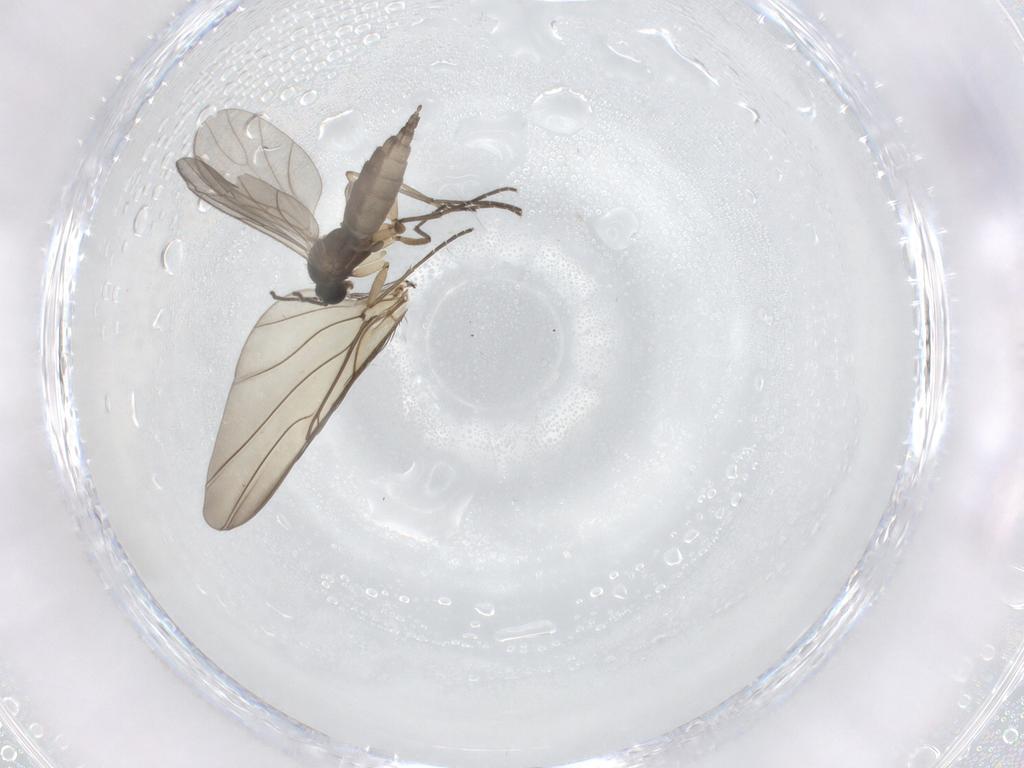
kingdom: Animalia
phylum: Arthropoda
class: Insecta
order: Diptera
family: Sciaridae
